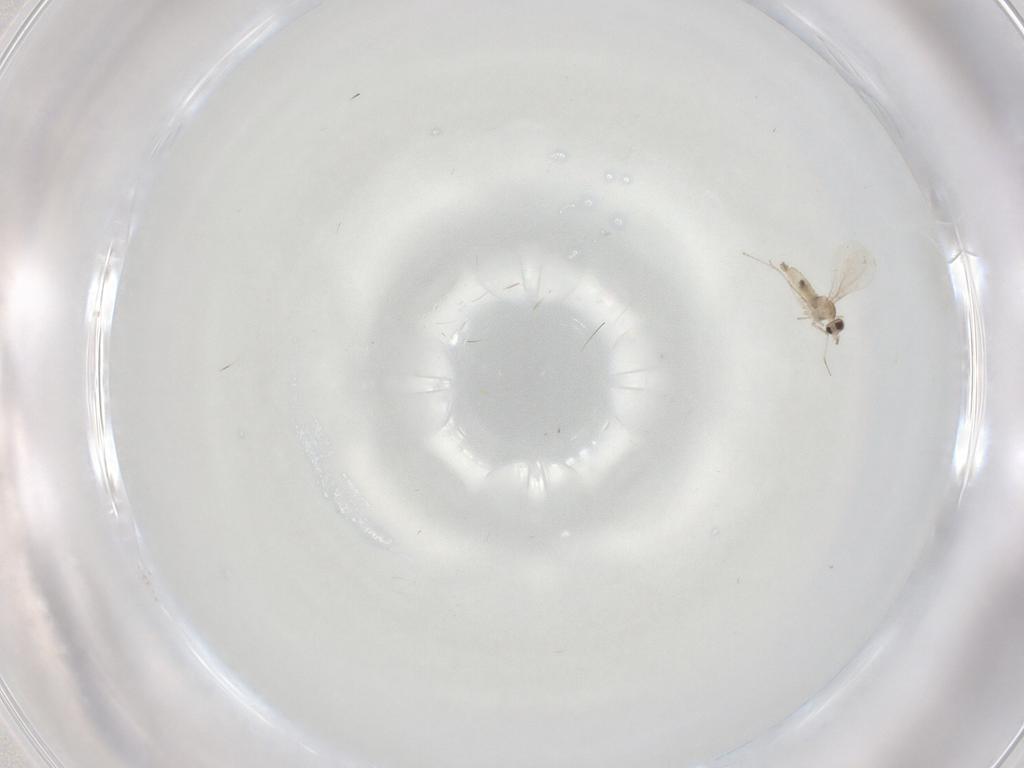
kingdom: Animalia
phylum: Arthropoda
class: Insecta
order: Diptera
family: Cecidomyiidae
